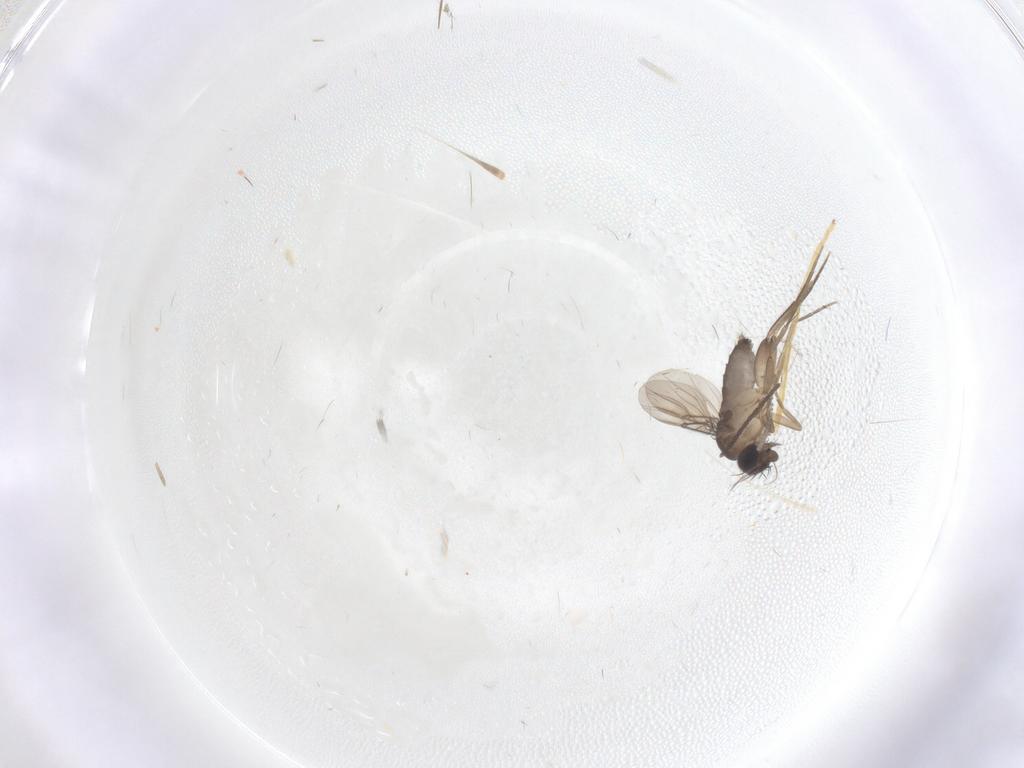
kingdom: Animalia
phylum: Arthropoda
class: Insecta
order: Diptera
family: Phoridae
